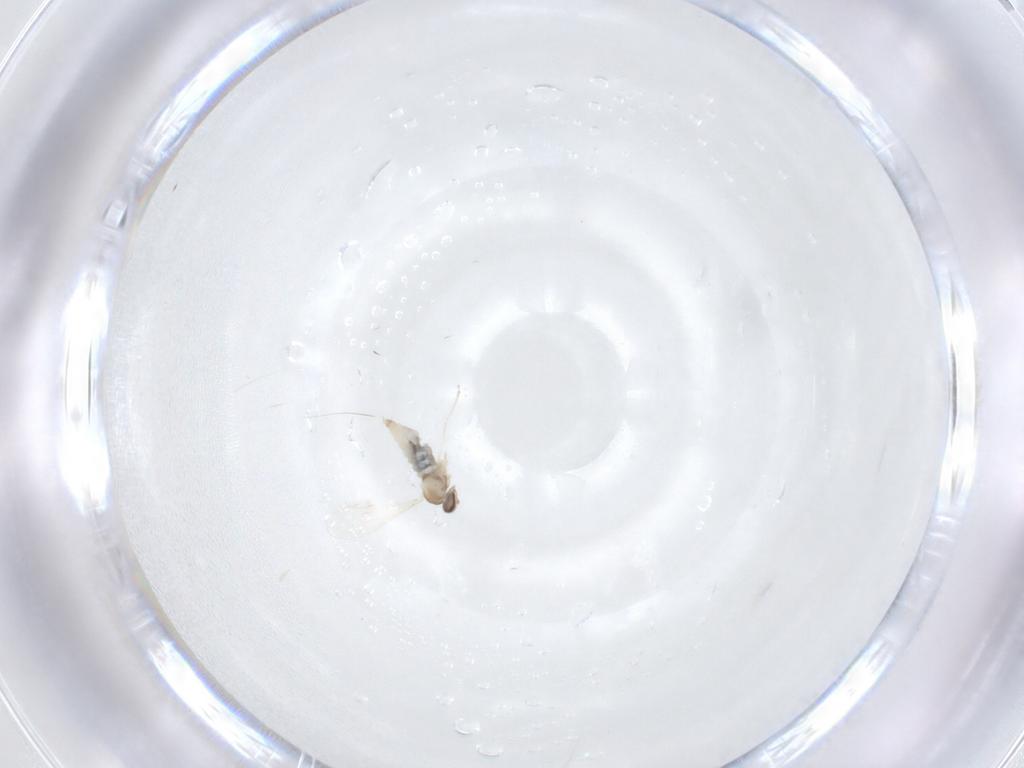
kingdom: Animalia
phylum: Arthropoda
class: Insecta
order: Diptera
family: Cecidomyiidae
